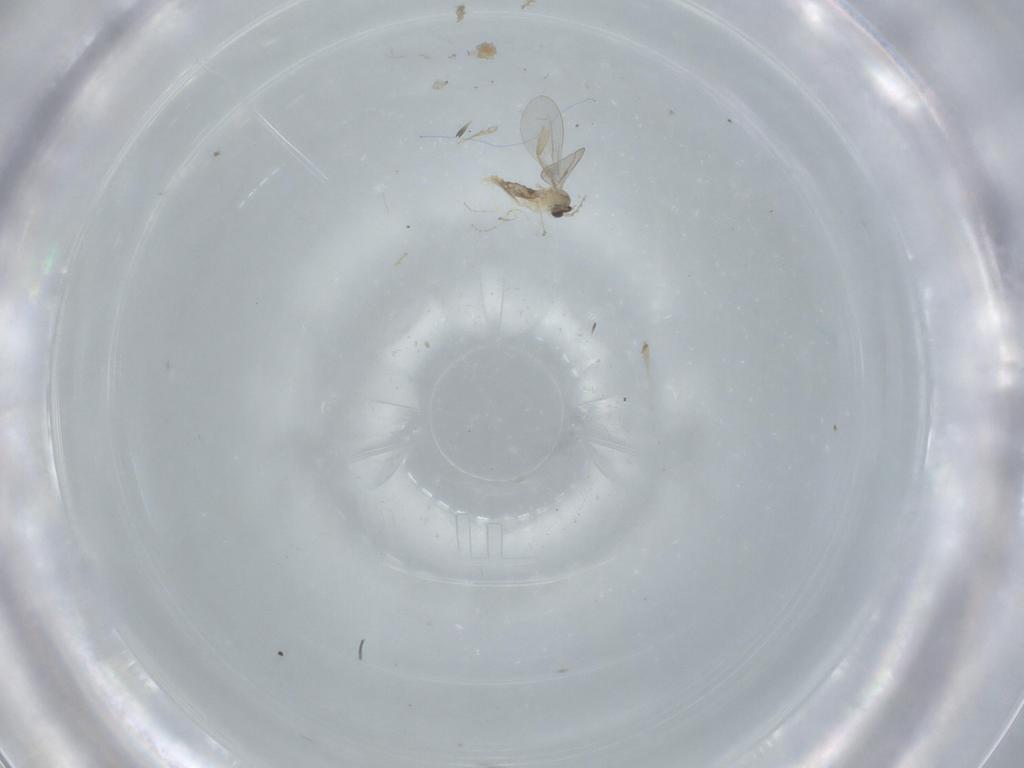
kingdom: Animalia
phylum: Arthropoda
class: Insecta
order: Diptera
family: Cecidomyiidae
